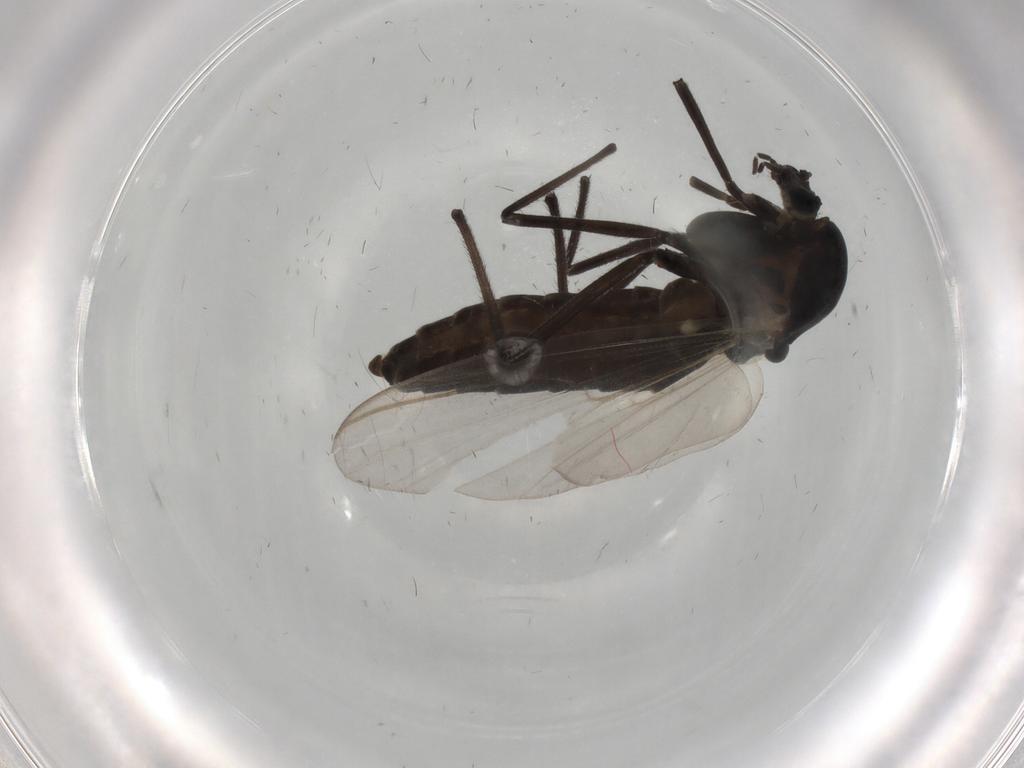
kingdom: Animalia
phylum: Arthropoda
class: Insecta
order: Diptera
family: Chironomidae
